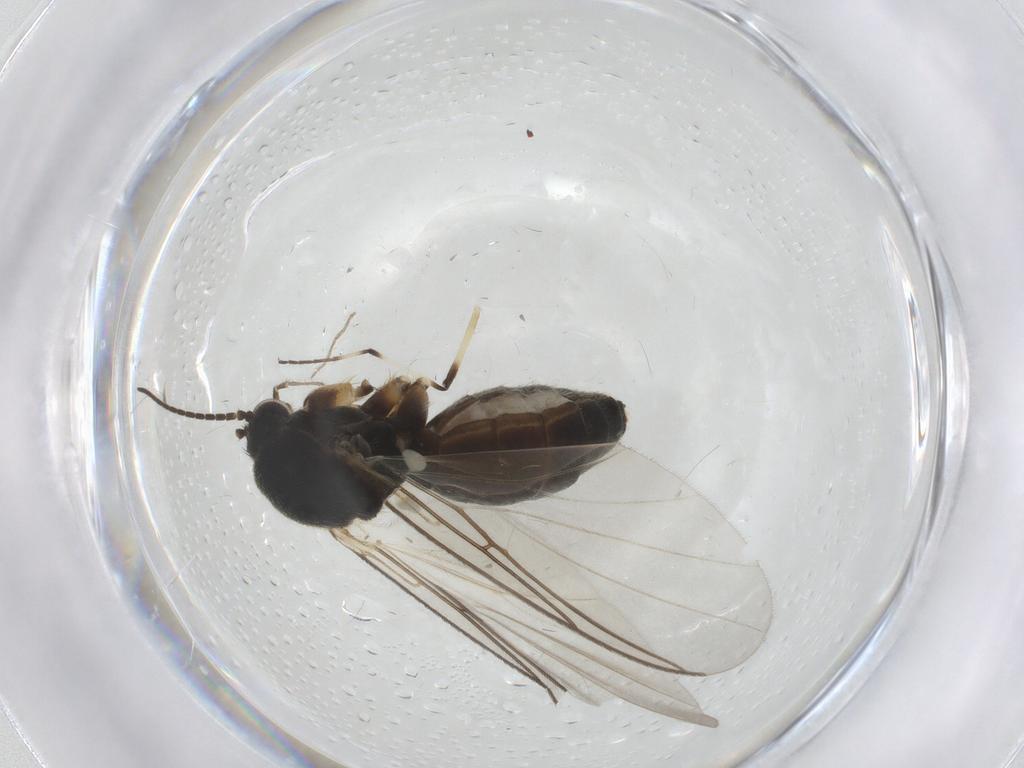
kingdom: Animalia
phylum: Arthropoda
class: Insecta
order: Diptera
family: Mycetophilidae
